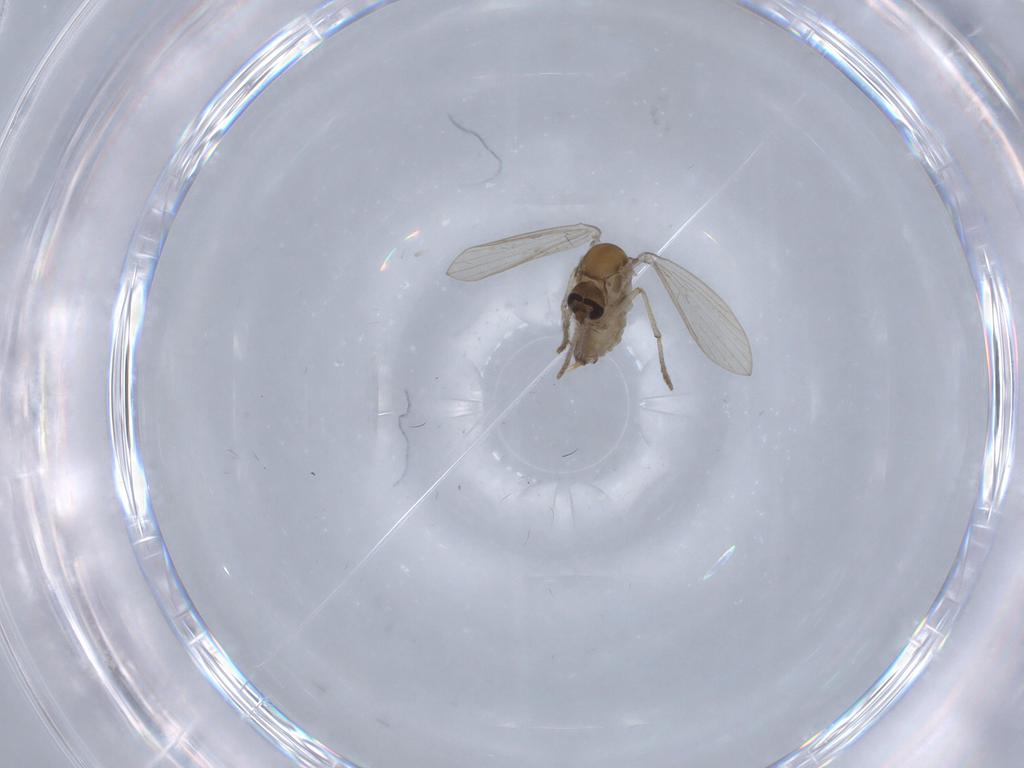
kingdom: Animalia
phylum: Arthropoda
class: Insecta
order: Diptera
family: Psychodidae
